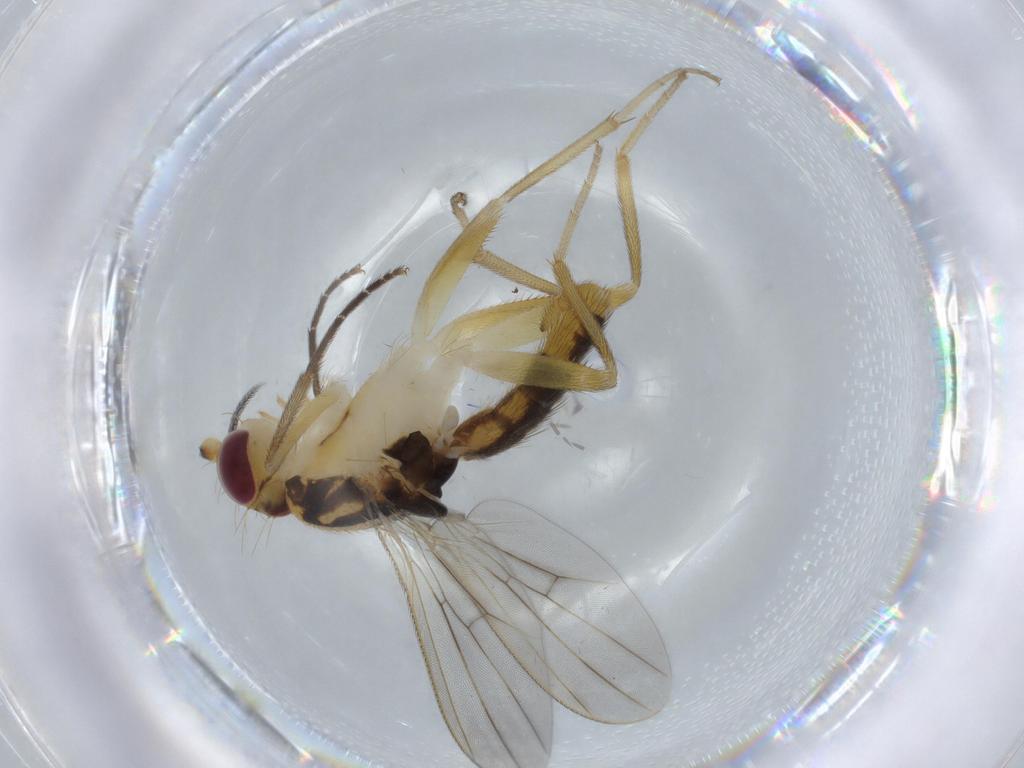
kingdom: Animalia
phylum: Arthropoda
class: Insecta
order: Diptera
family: Clusiidae
